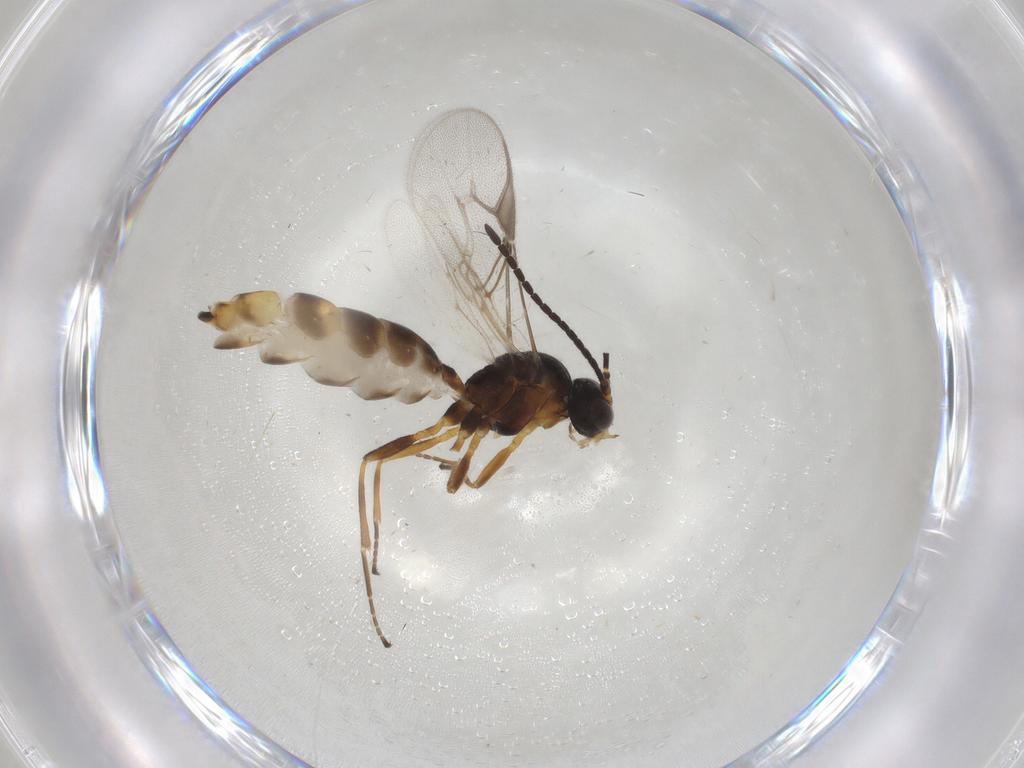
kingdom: Animalia
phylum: Arthropoda
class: Insecta
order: Hymenoptera
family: Braconidae
